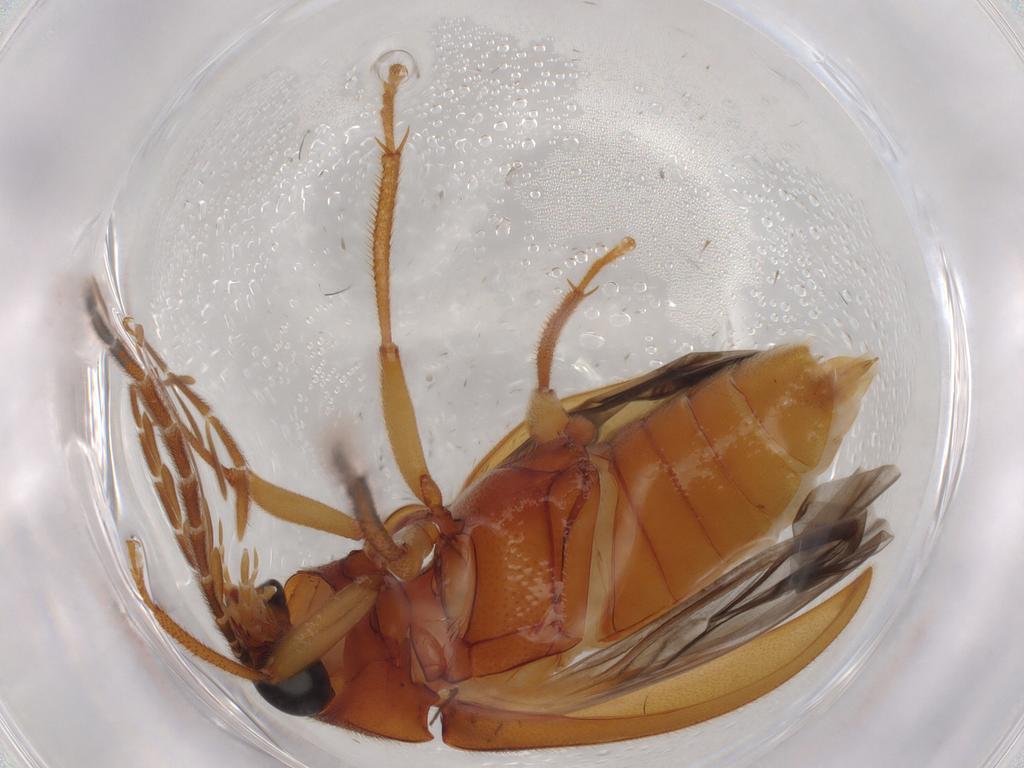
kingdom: Animalia
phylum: Arthropoda
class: Insecta
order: Coleoptera
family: Ptilodactylidae
